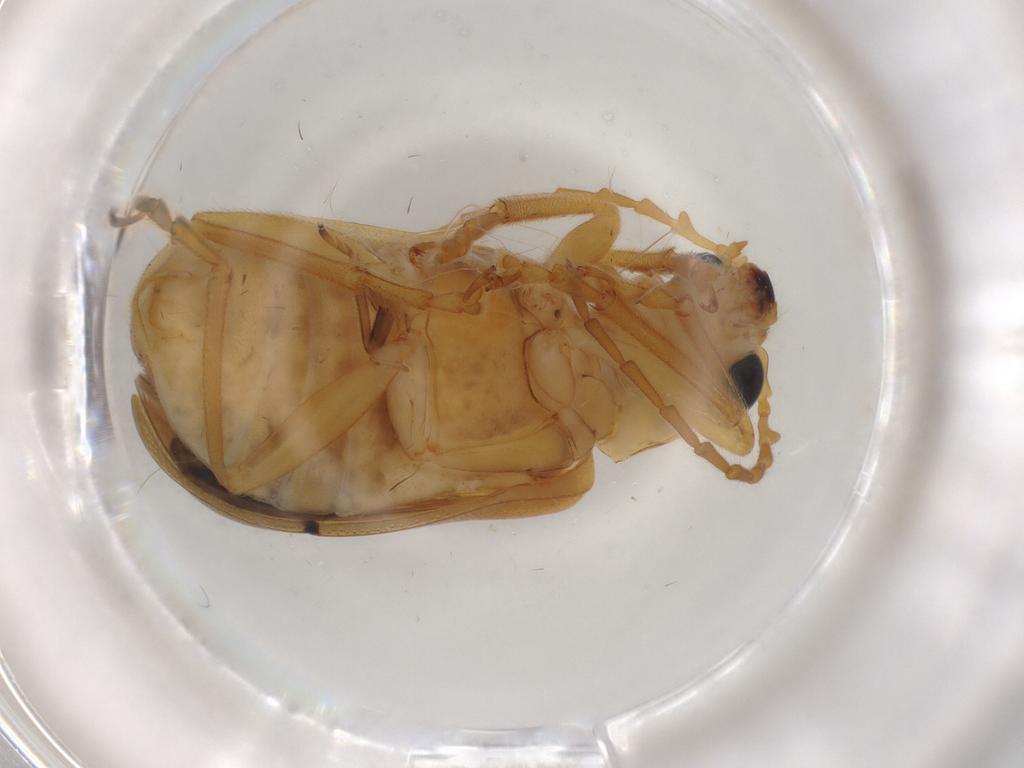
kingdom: Animalia
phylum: Arthropoda
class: Insecta
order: Coleoptera
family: Chrysomelidae
